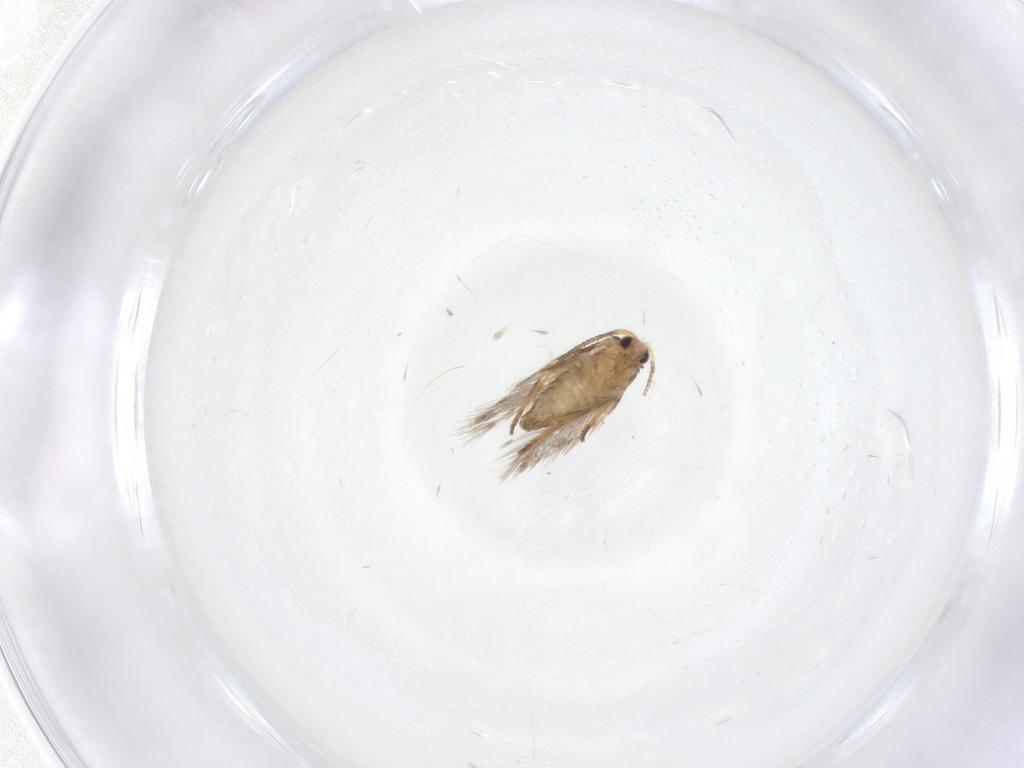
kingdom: Animalia
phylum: Arthropoda
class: Insecta
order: Lepidoptera
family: Nepticulidae
